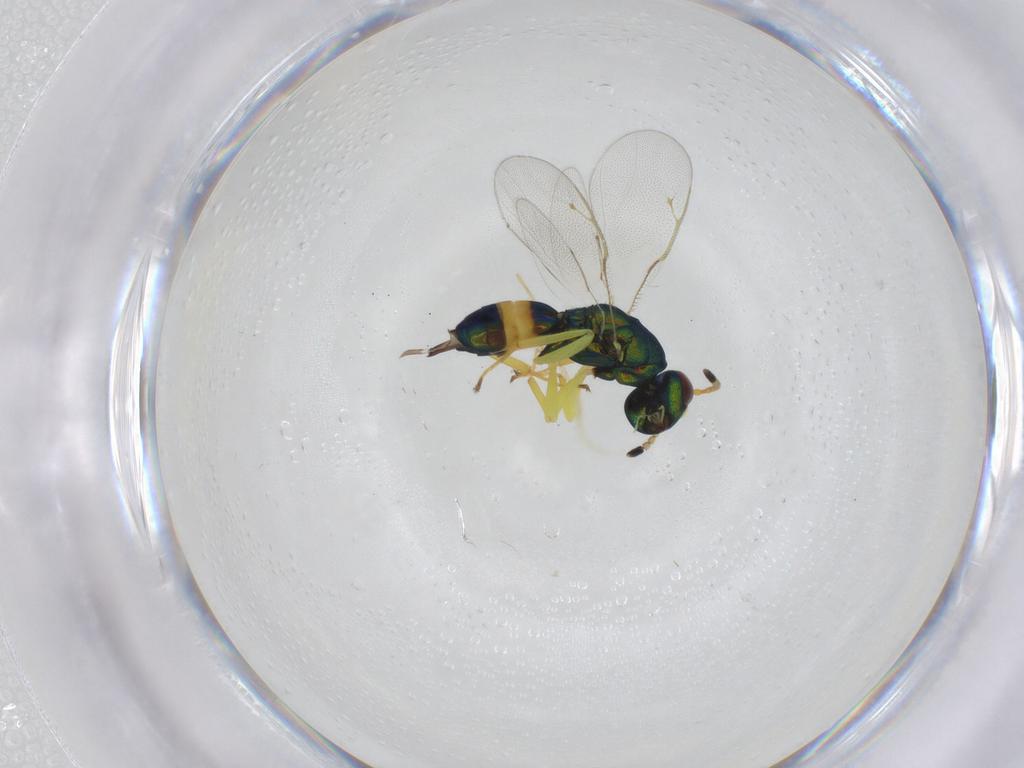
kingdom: Animalia
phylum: Arthropoda
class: Insecta
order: Hymenoptera
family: Pteromalidae
